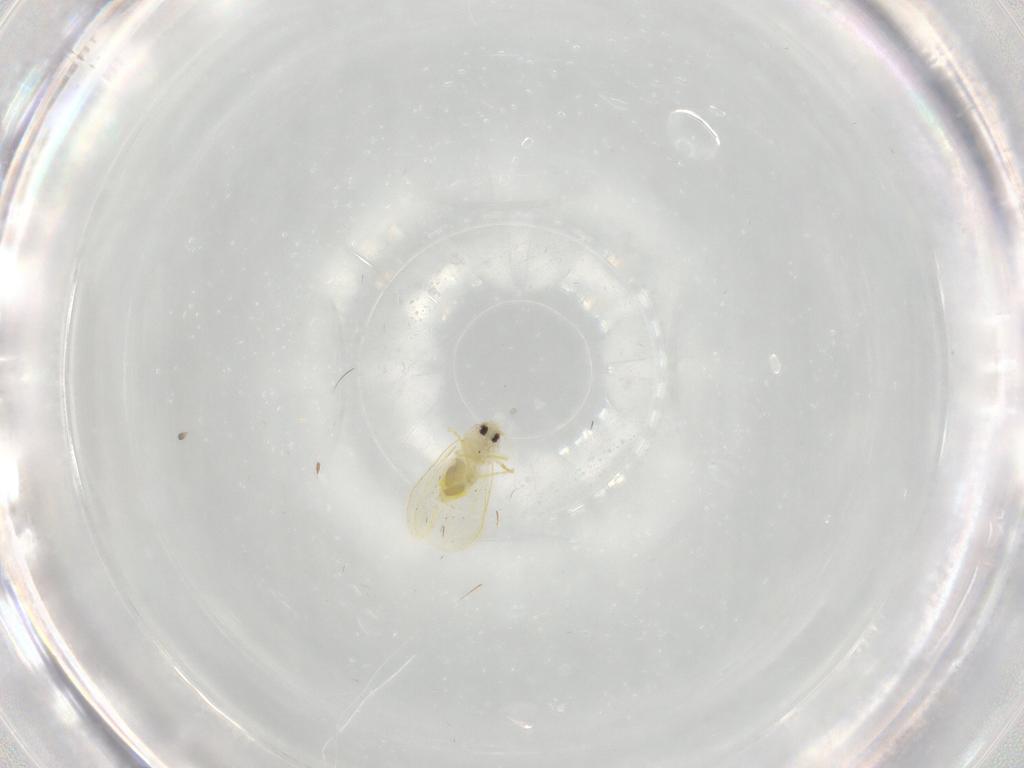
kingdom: Animalia
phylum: Arthropoda
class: Insecta
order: Hemiptera
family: Aleyrodidae
